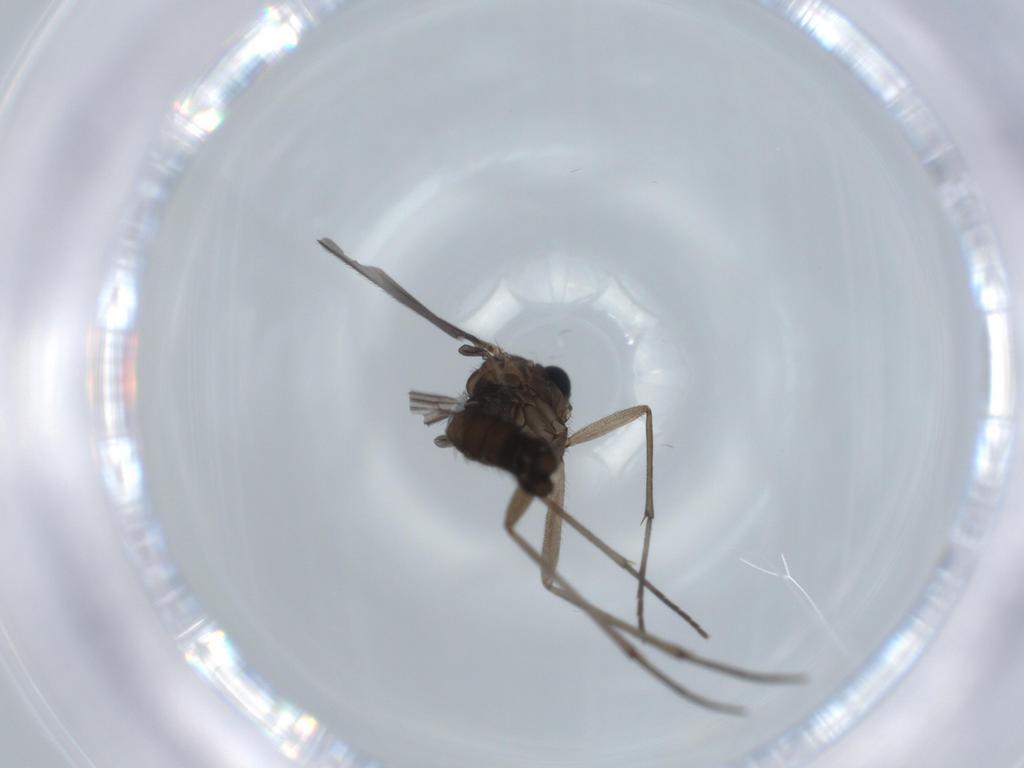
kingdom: Animalia
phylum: Arthropoda
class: Insecta
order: Diptera
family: Sciaridae
